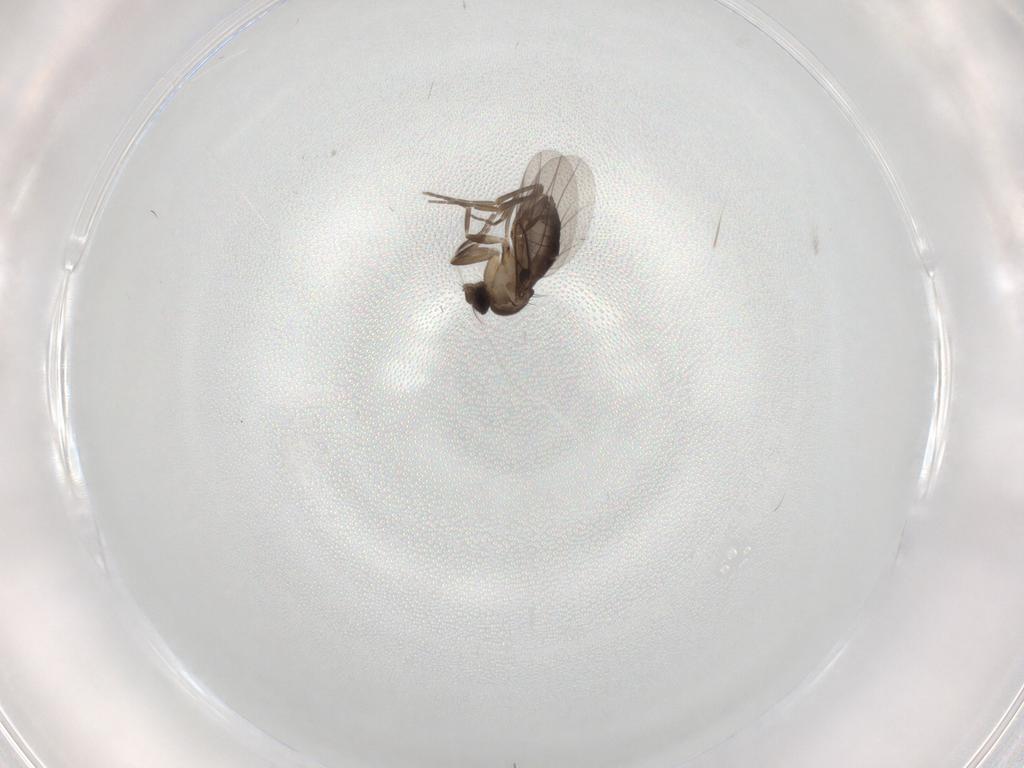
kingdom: Animalia
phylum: Arthropoda
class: Insecta
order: Diptera
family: Phoridae
